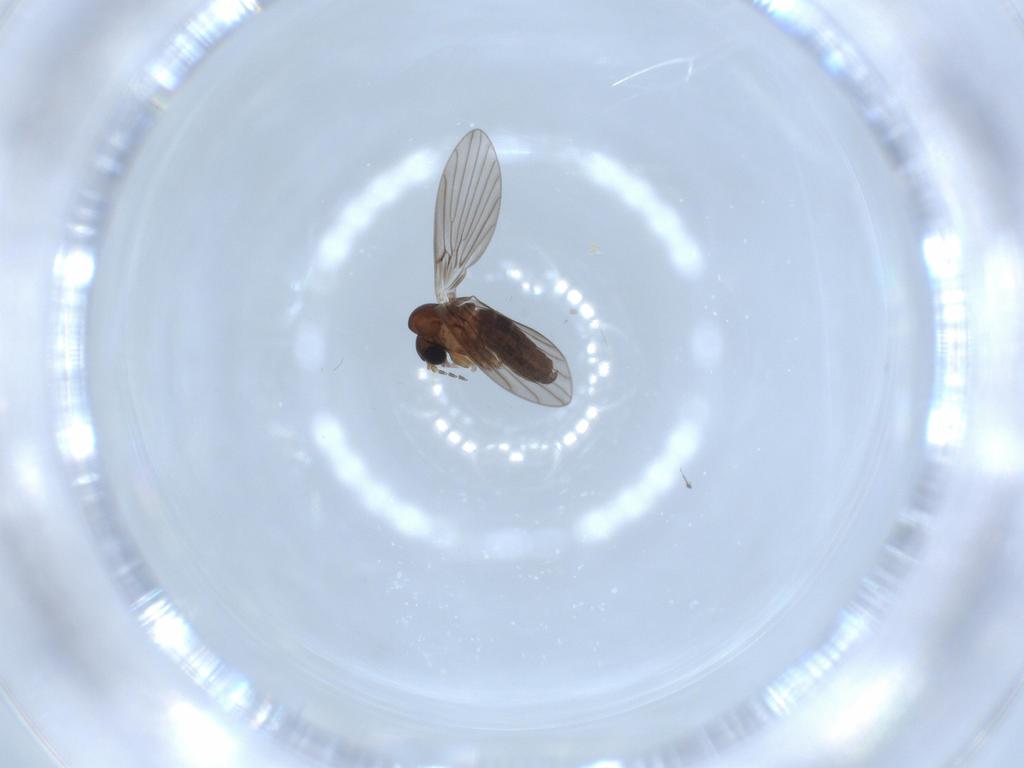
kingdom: Animalia
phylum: Arthropoda
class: Insecta
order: Diptera
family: Psychodidae
